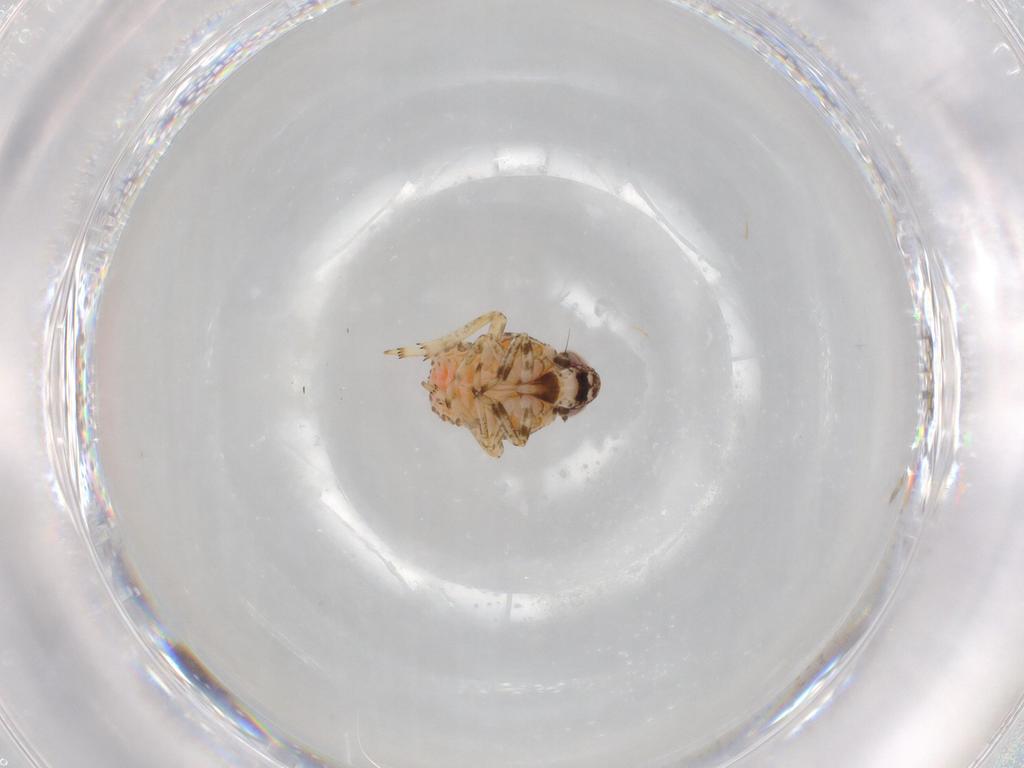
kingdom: Animalia
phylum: Arthropoda
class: Insecta
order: Hemiptera
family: Issidae
